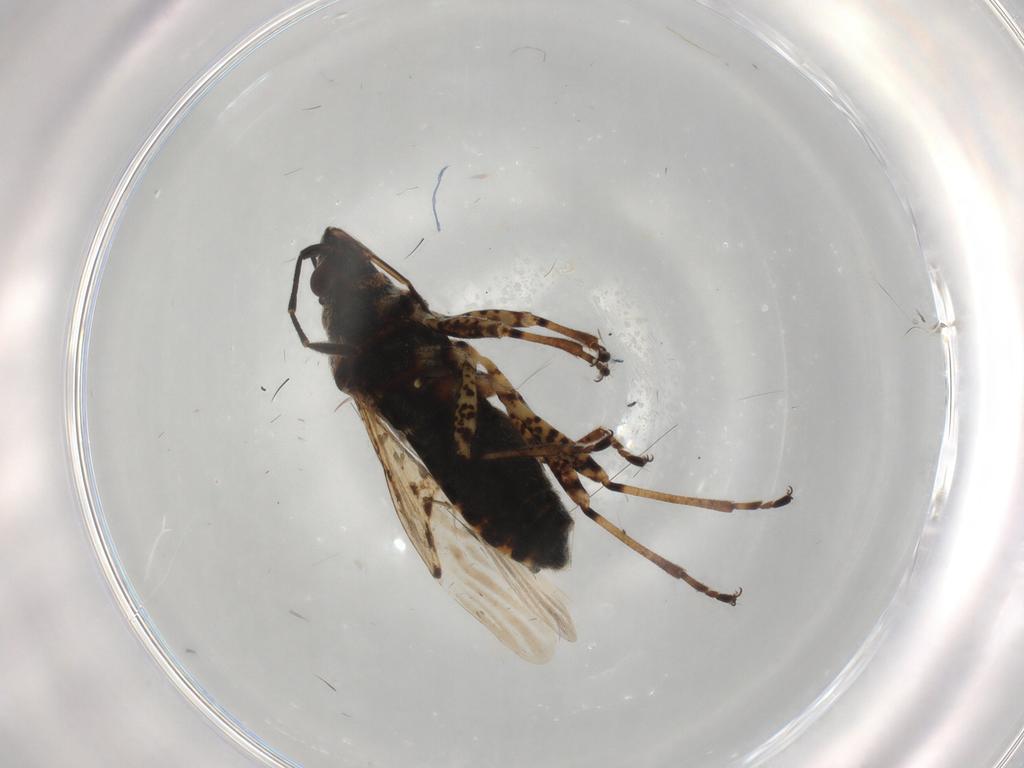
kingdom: Animalia
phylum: Arthropoda
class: Insecta
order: Hemiptera
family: Lygaeidae
